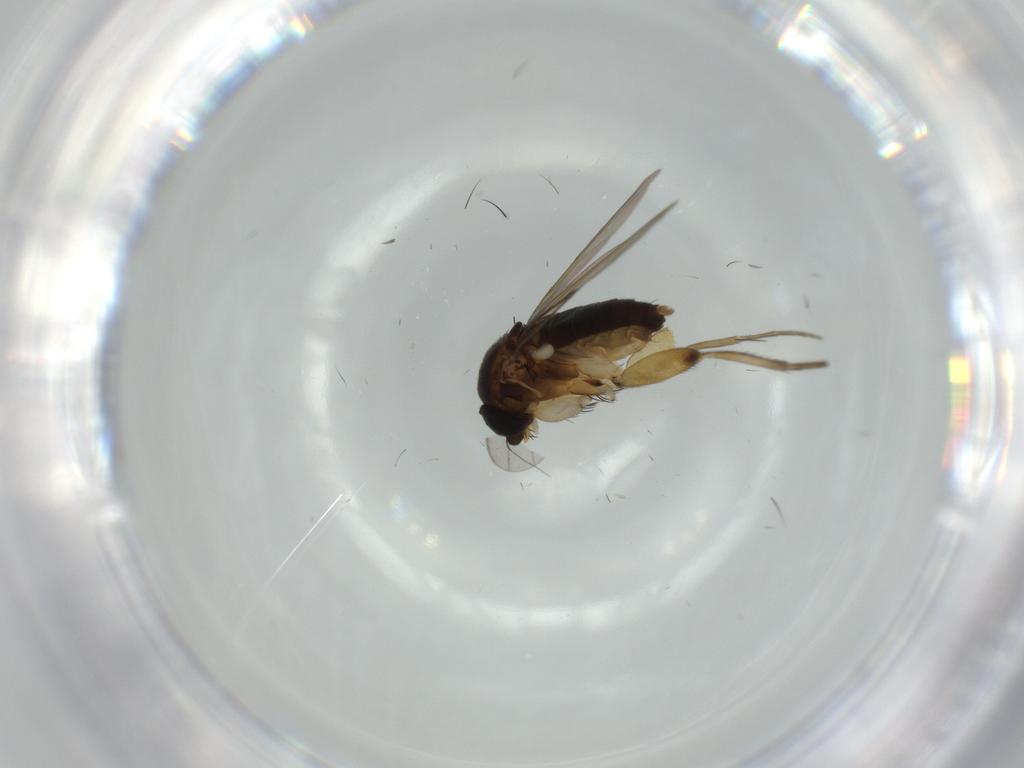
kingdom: Animalia
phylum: Arthropoda
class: Insecta
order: Diptera
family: Phoridae
